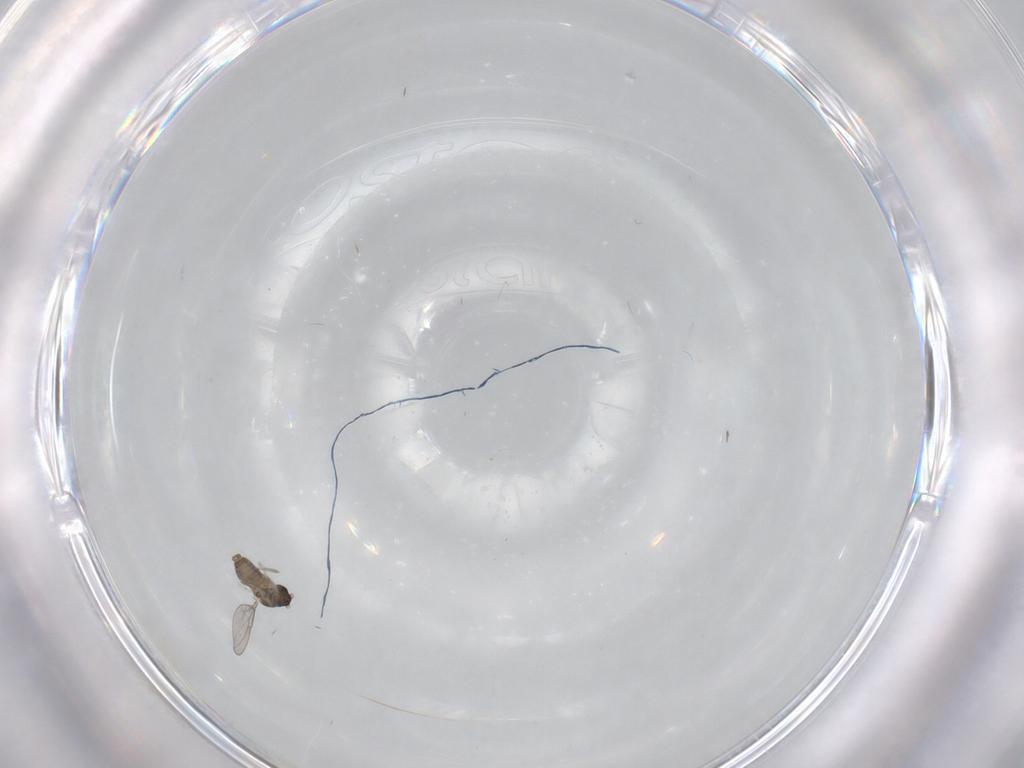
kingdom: Animalia
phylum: Arthropoda
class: Insecta
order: Diptera
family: Cecidomyiidae
